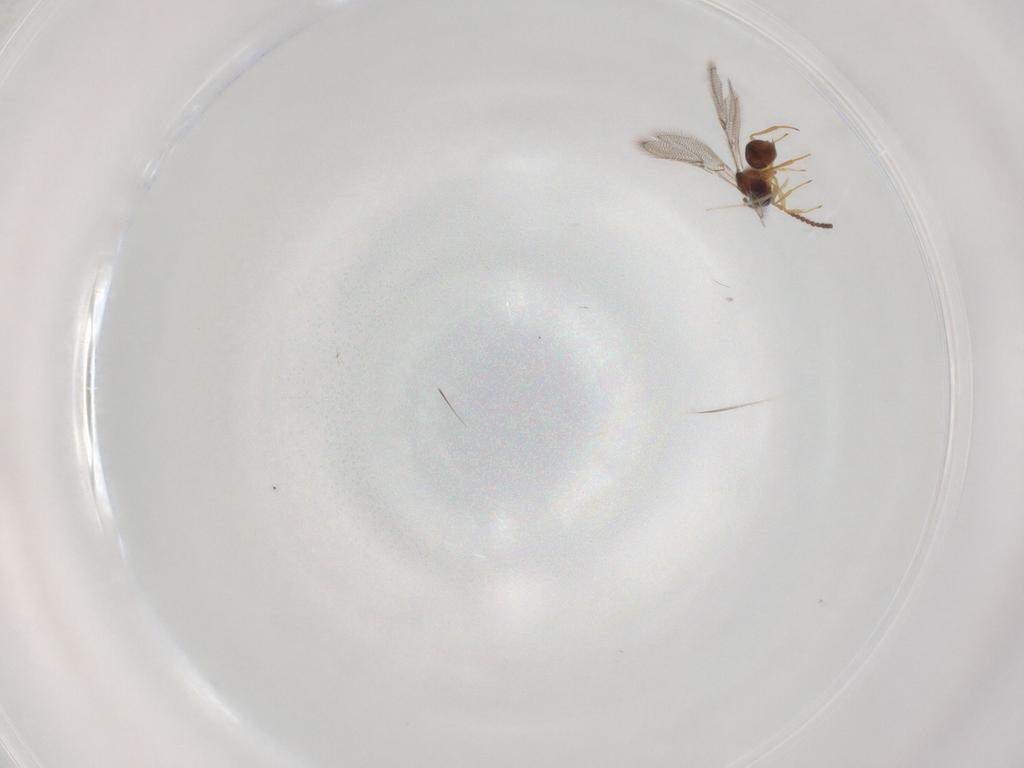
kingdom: Animalia
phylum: Arthropoda
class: Insecta
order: Hymenoptera
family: Figitidae
